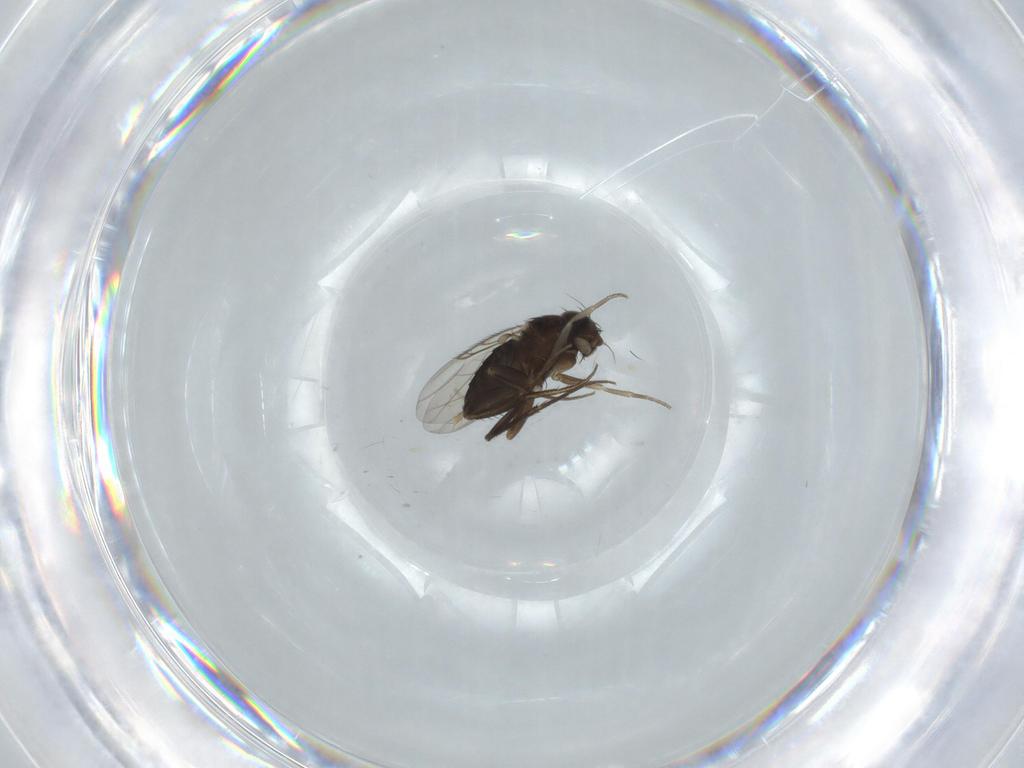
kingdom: Animalia
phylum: Arthropoda
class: Insecta
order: Diptera
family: Phoridae
